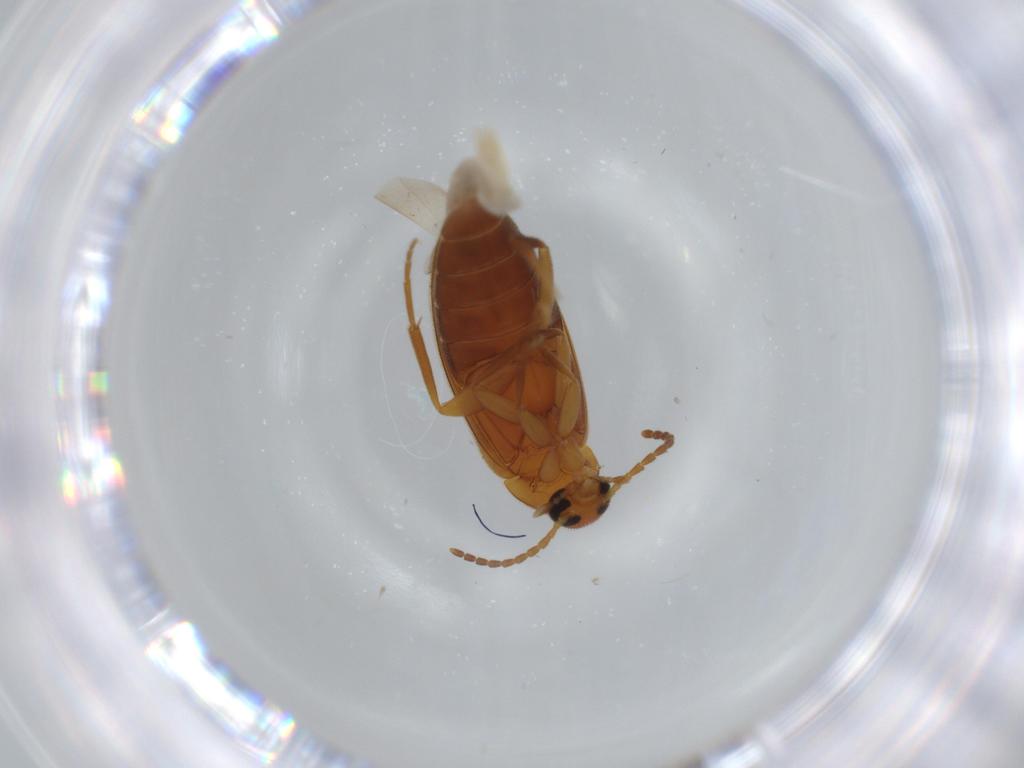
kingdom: Animalia
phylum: Arthropoda
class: Insecta
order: Coleoptera
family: Scraptiidae
